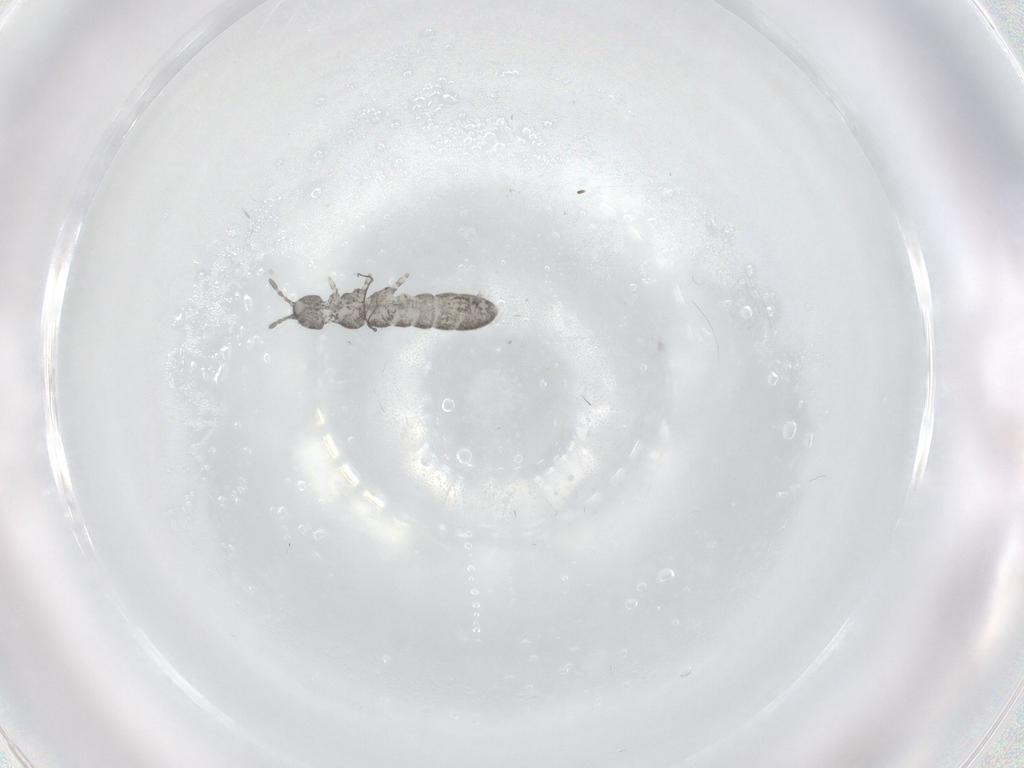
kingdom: Animalia
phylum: Arthropoda
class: Collembola
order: Entomobryomorpha
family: Isotomidae
